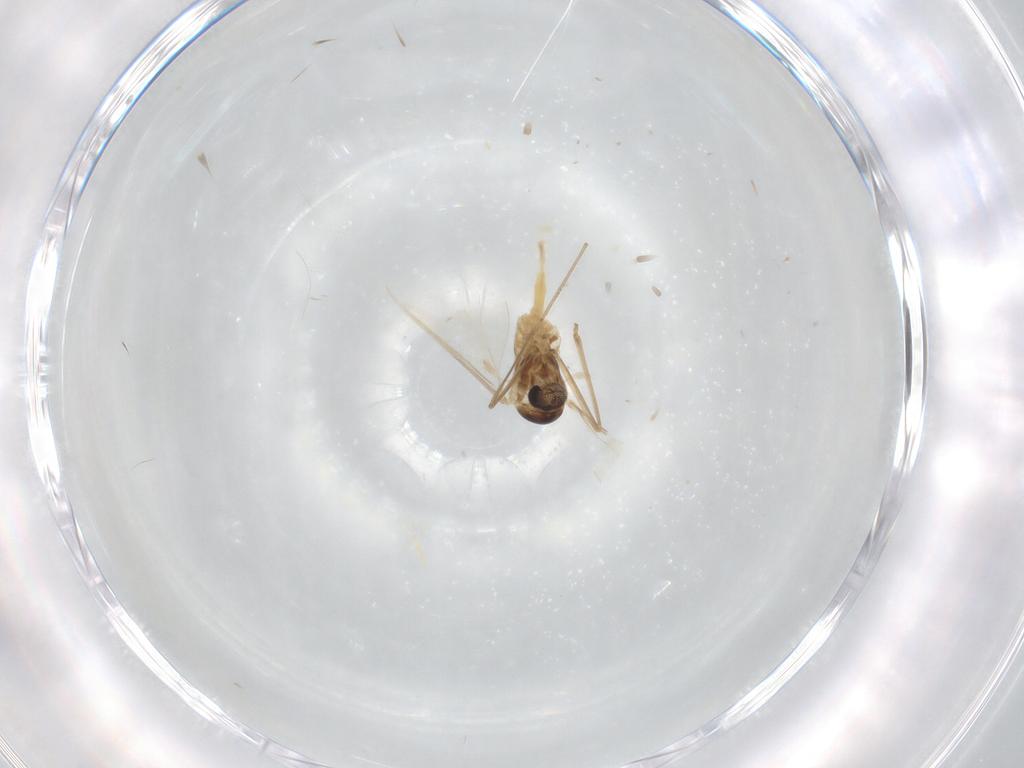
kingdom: Animalia
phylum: Arthropoda
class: Insecta
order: Diptera
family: Cecidomyiidae
